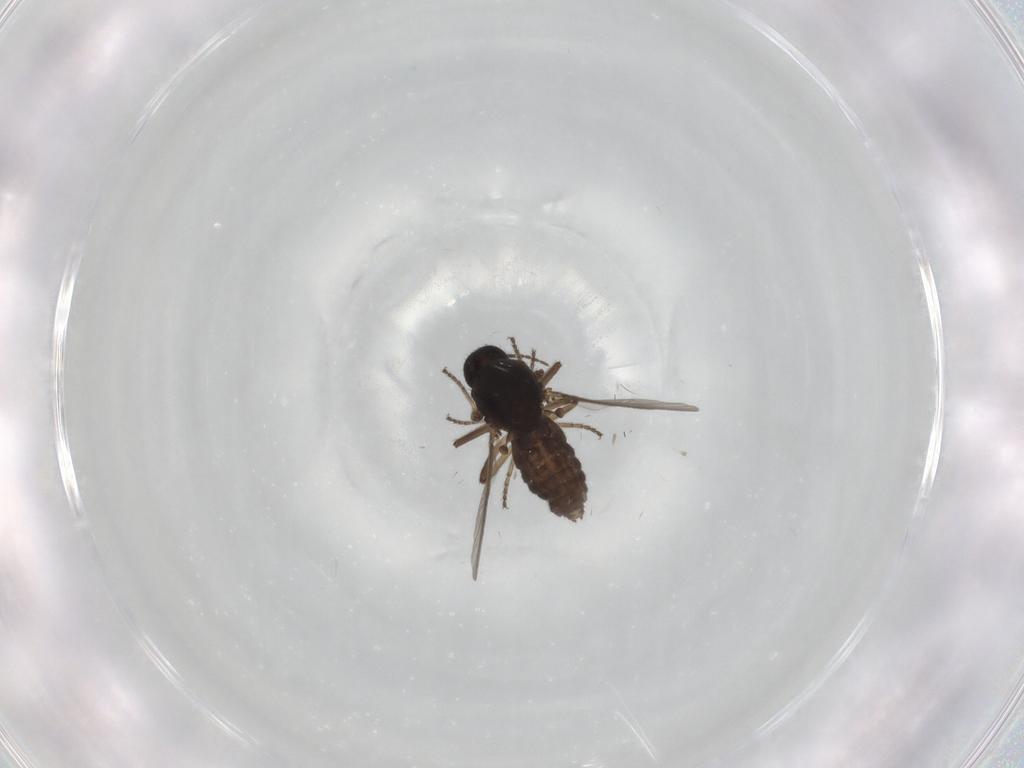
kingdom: Animalia
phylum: Arthropoda
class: Insecta
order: Diptera
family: Ceratopogonidae
